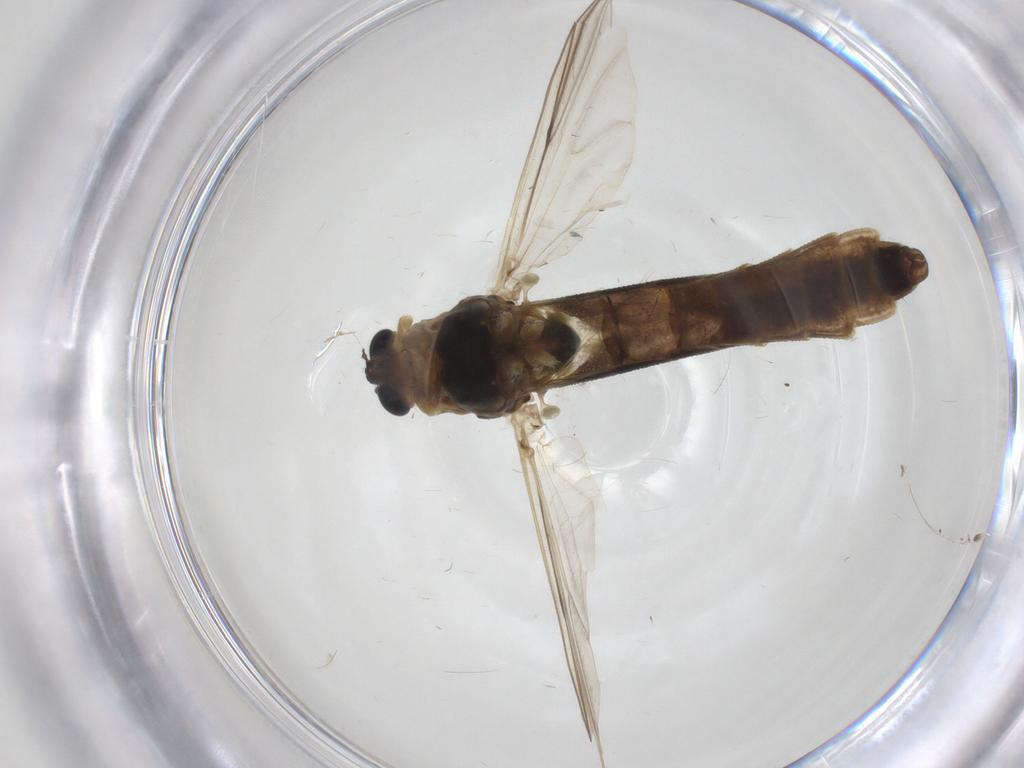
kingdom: Animalia
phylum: Arthropoda
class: Insecta
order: Diptera
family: Chironomidae
